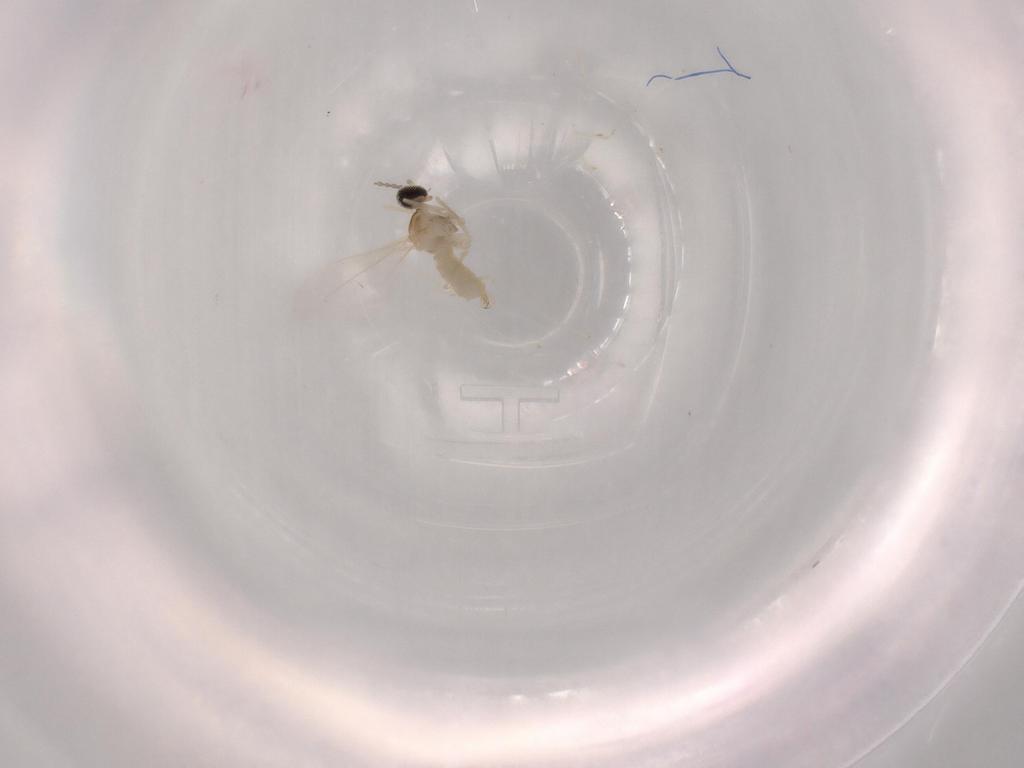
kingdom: Animalia
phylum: Arthropoda
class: Insecta
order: Diptera
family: Cecidomyiidae
